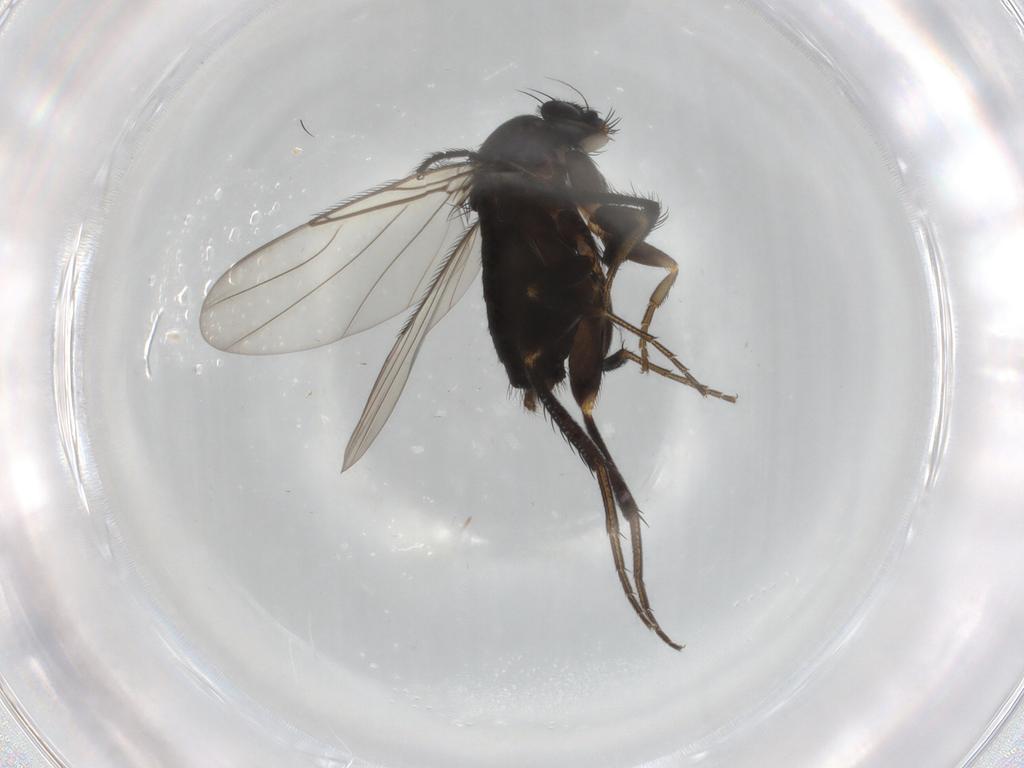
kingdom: Animalia
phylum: Arthropoda
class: Insecta
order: Diptera
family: Phoridae
